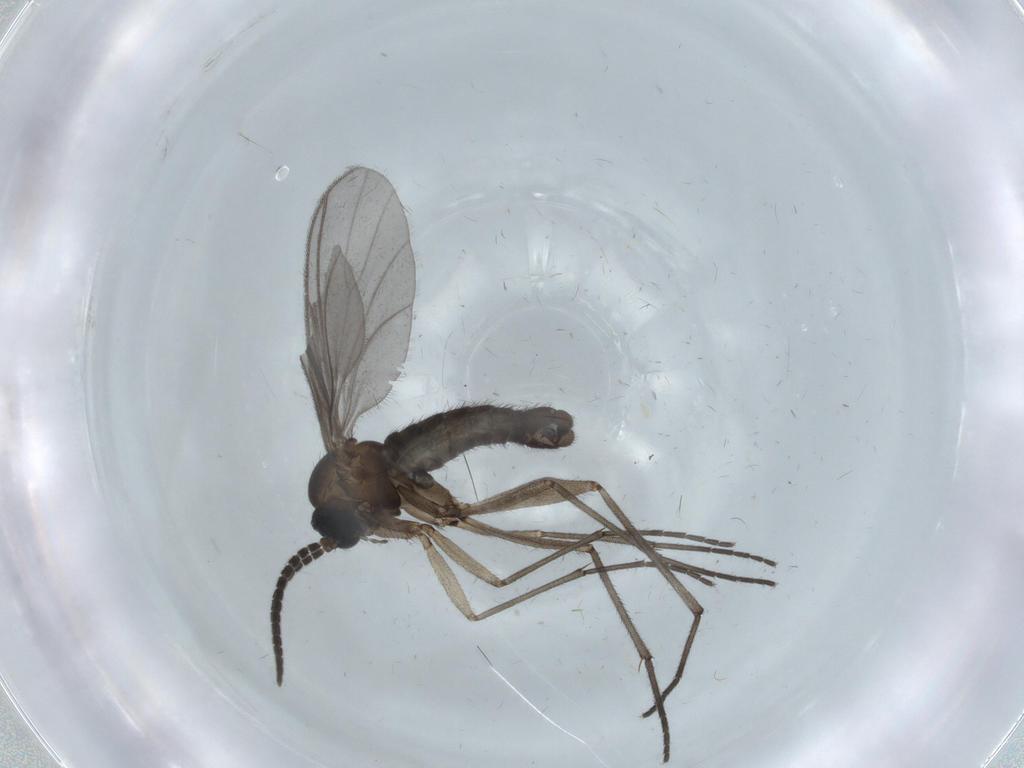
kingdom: Animalia
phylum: Arthropoda
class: Insecta
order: Diptera
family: Sciaridae
